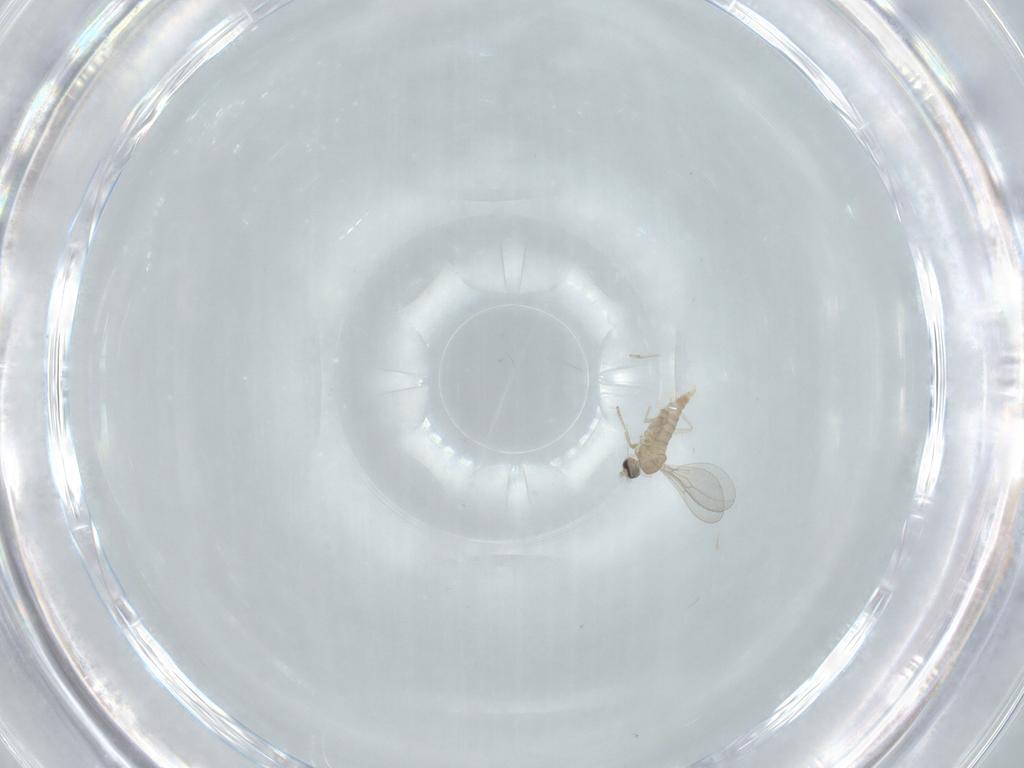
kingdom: Animalia
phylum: Arthropoda
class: Insecta
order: Diptera
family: Cecidomyiidae
